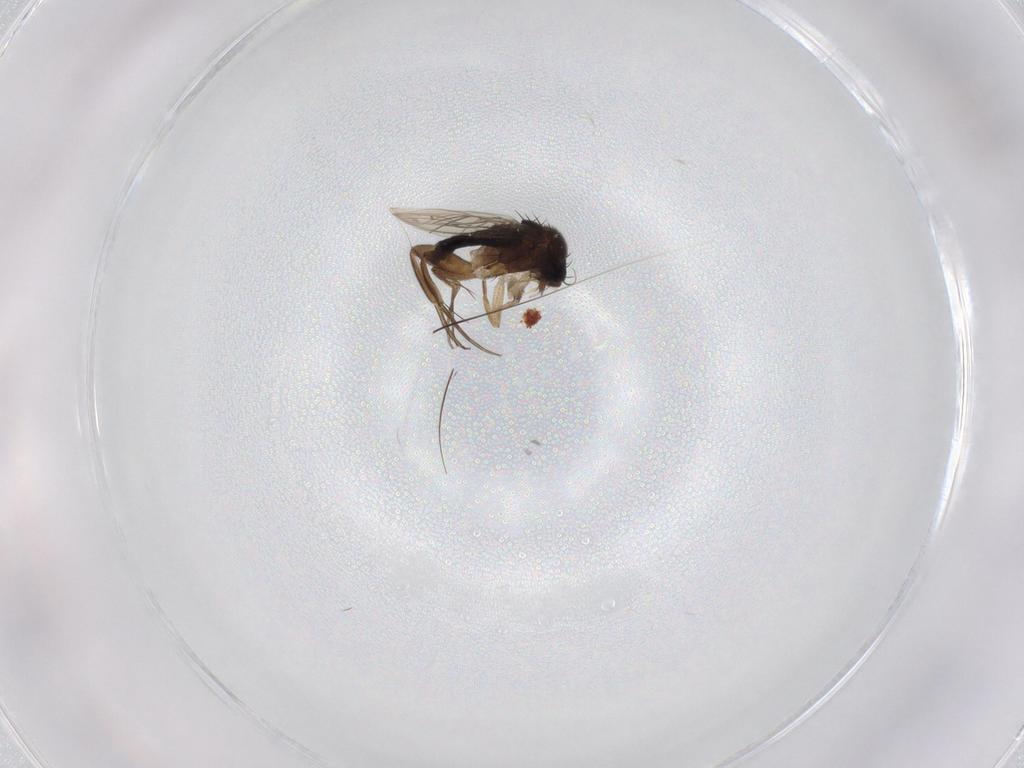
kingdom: Animalia
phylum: Arthropoda
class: Insecta
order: Diptera
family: Phoridae
